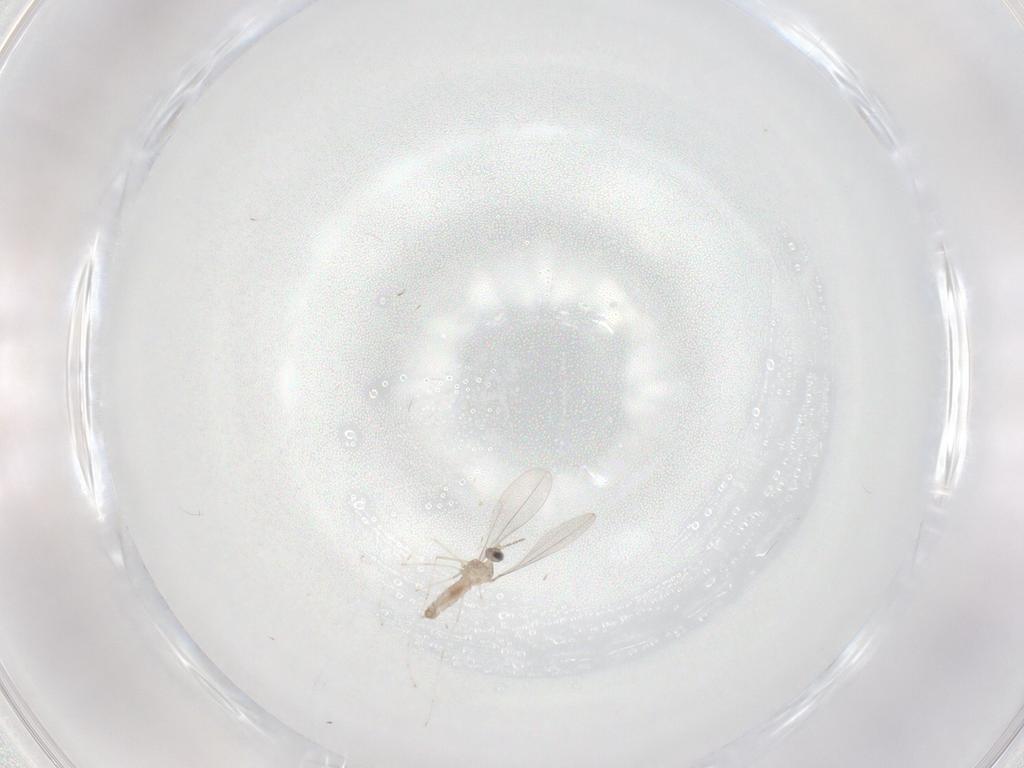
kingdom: Animalia
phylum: Arthropoda
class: Insecta
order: Diptera
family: Cecidomyiidae
